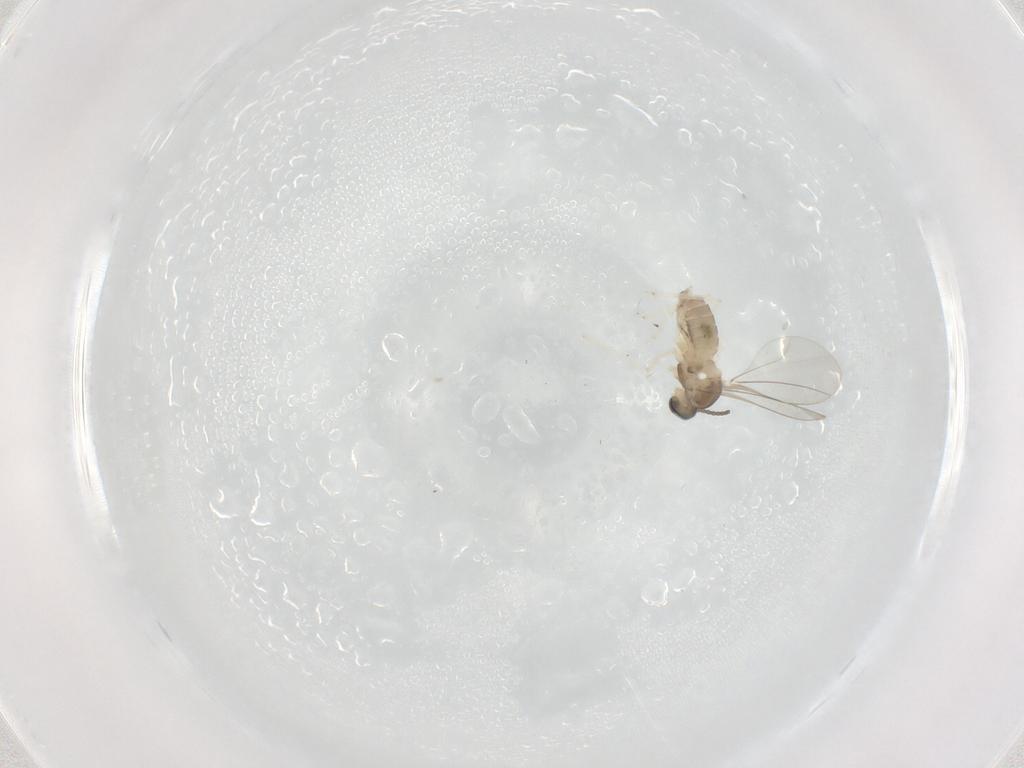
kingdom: Animalia
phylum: Arthropoda
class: Insecta
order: Diptera
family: Cecidomyiidae
